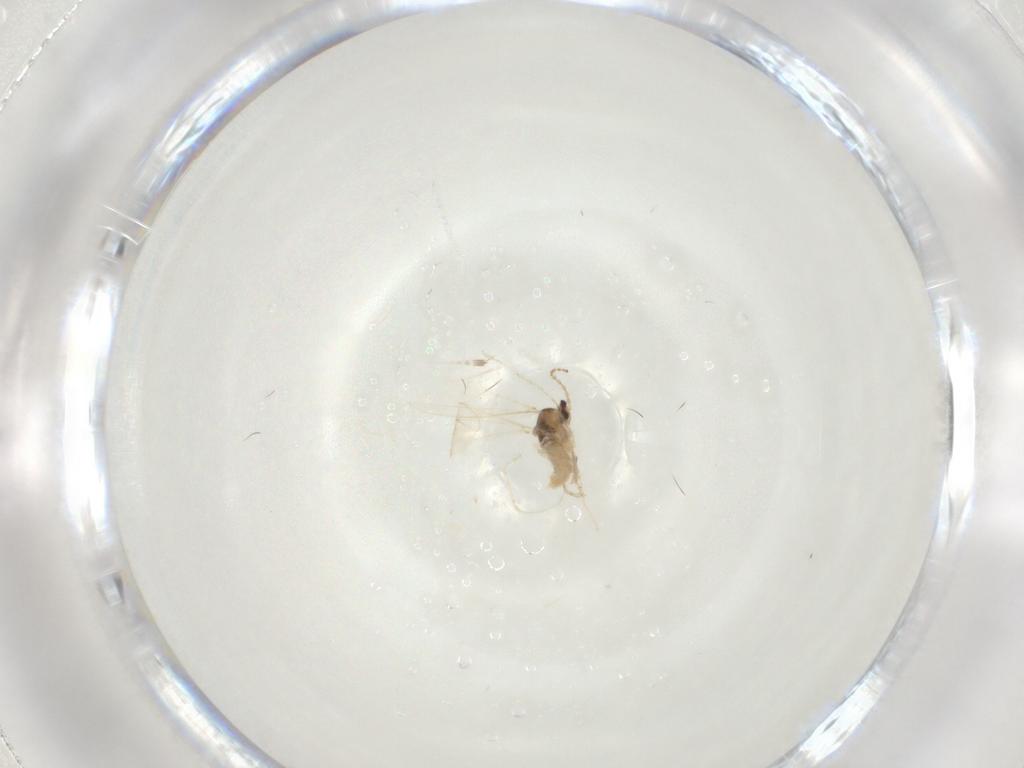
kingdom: Animalia
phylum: Arthropoda
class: Insecta
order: Diptera
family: Cecidomyiidae
